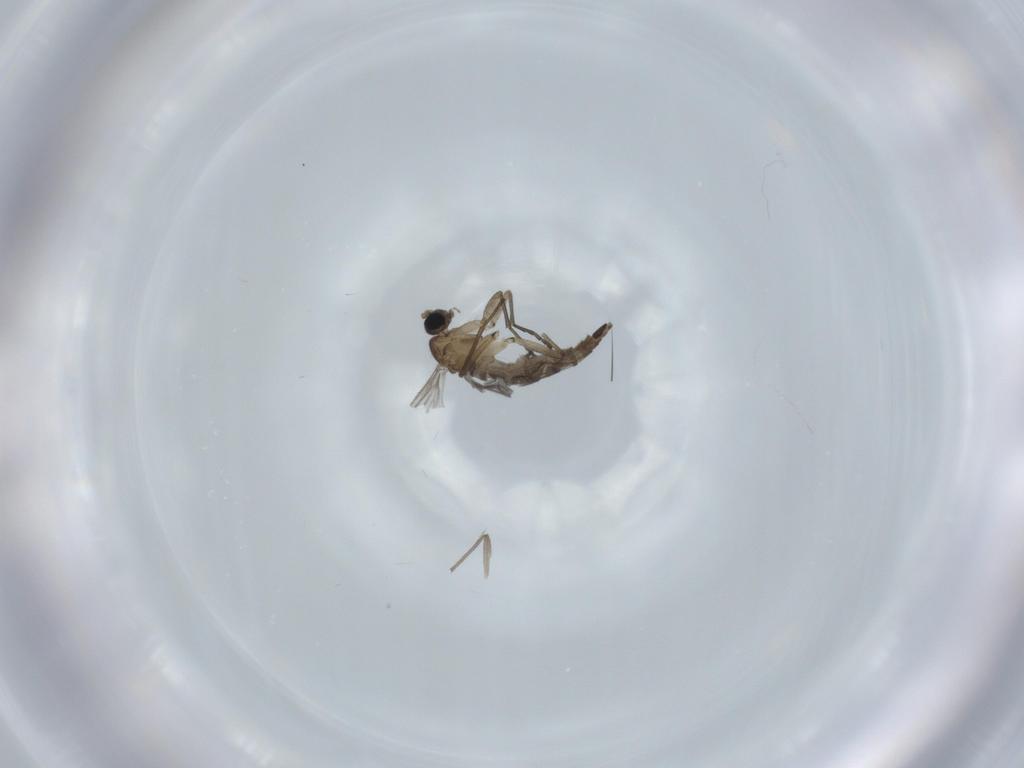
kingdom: Animalia
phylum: Arthropoda
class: Insecta
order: Diptera
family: Sciaridae
